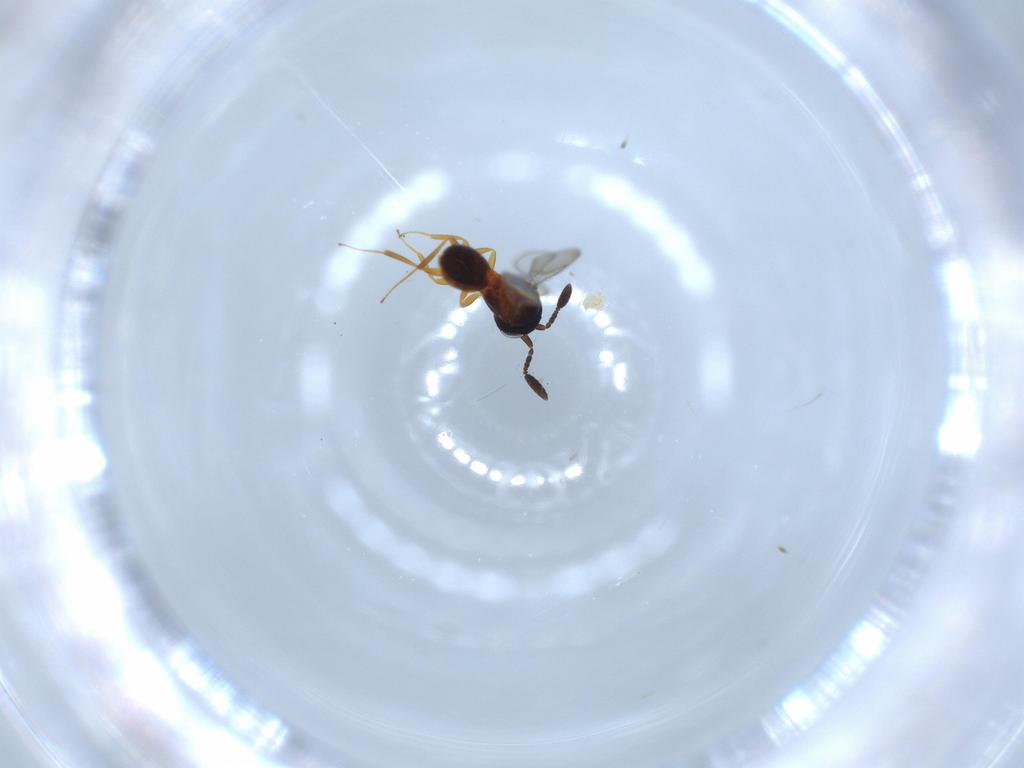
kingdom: Animalia
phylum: Arthropoda
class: Insecta
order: Hymenoptera
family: Scelionidae
